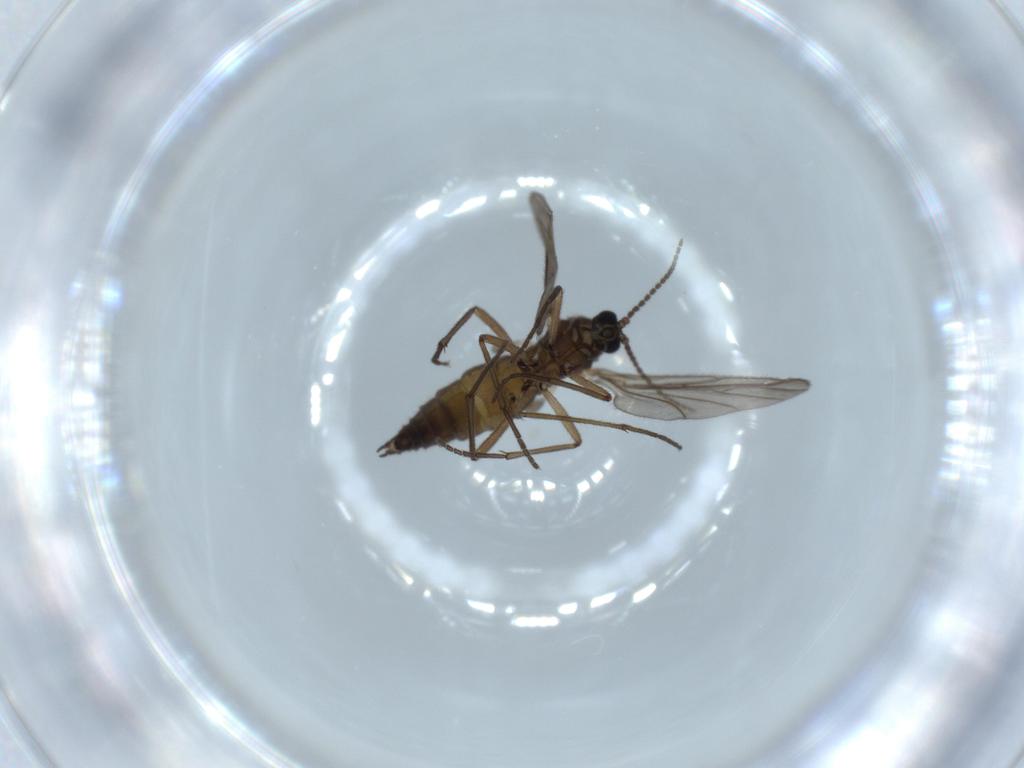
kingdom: Animalia
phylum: Arthropoda
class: Insecta
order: Diptera
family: Sciaridae
